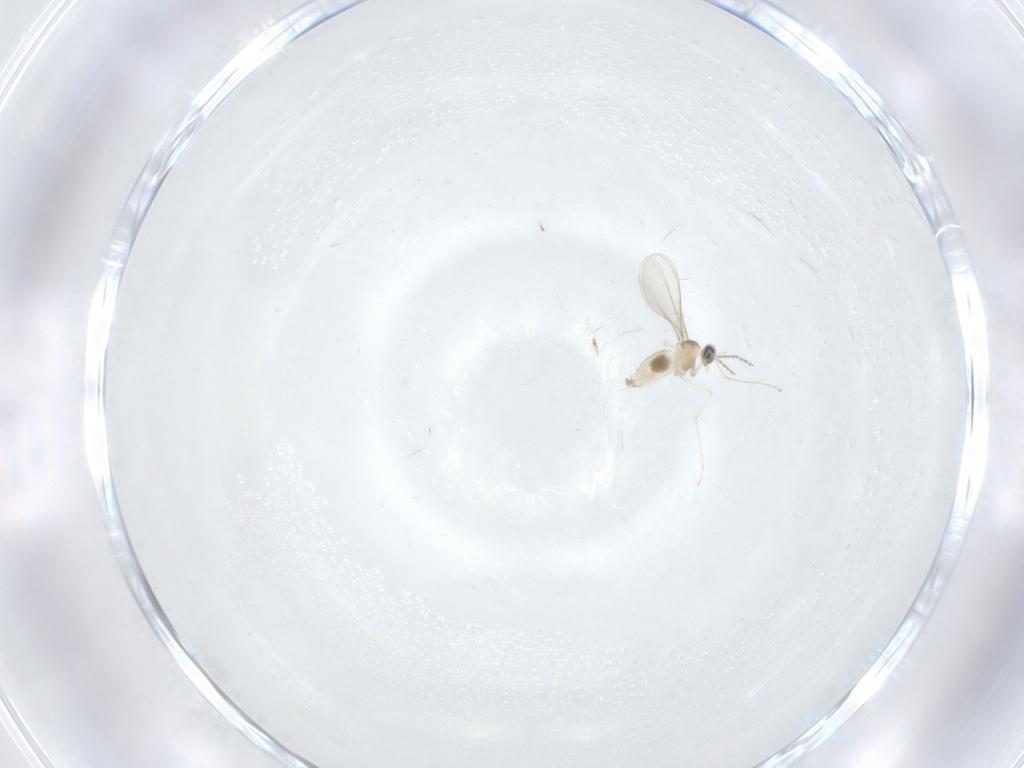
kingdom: Animalia
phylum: Arthropoda
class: Insecta
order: Diptera
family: Cecidomyiidae
